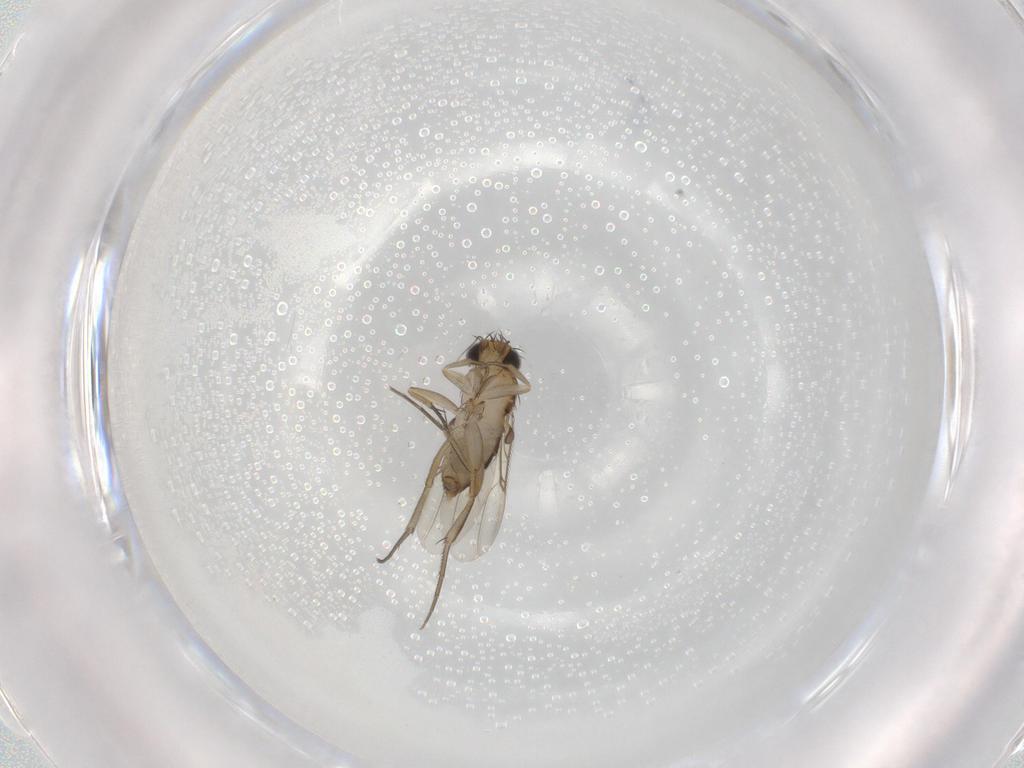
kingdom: Animalia
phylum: Arthropoda
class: Insecta
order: Diptera
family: Phoridae
